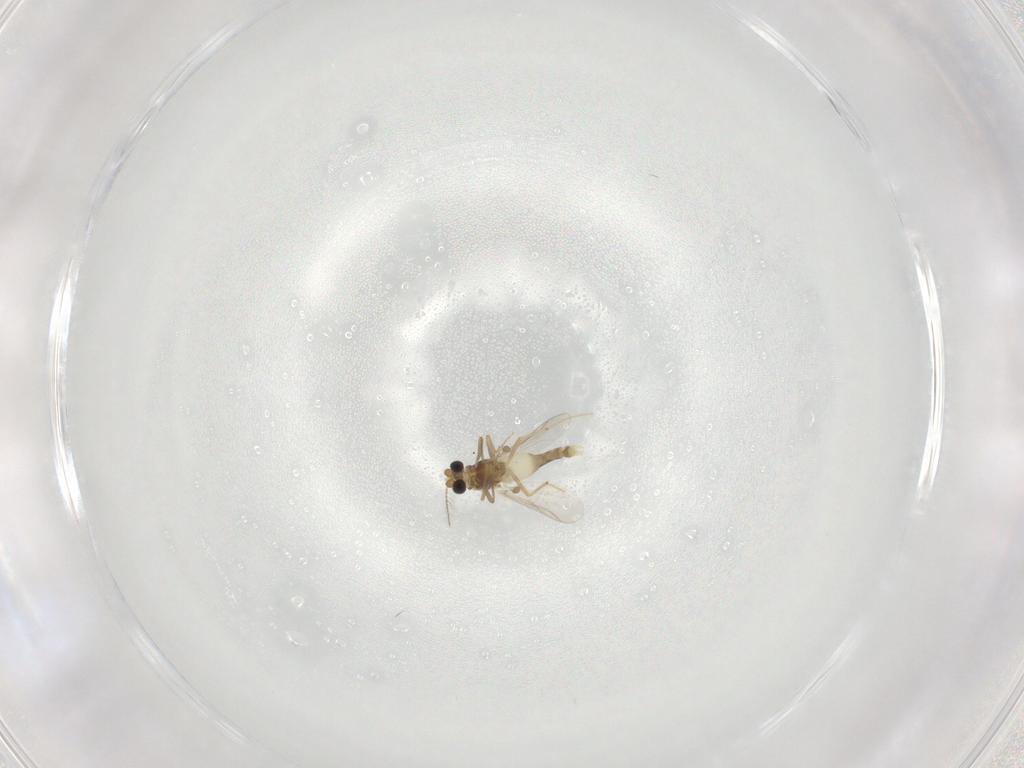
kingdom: Animalia
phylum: Arthropoda
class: Insecta
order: Diptera
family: Chironomidae
